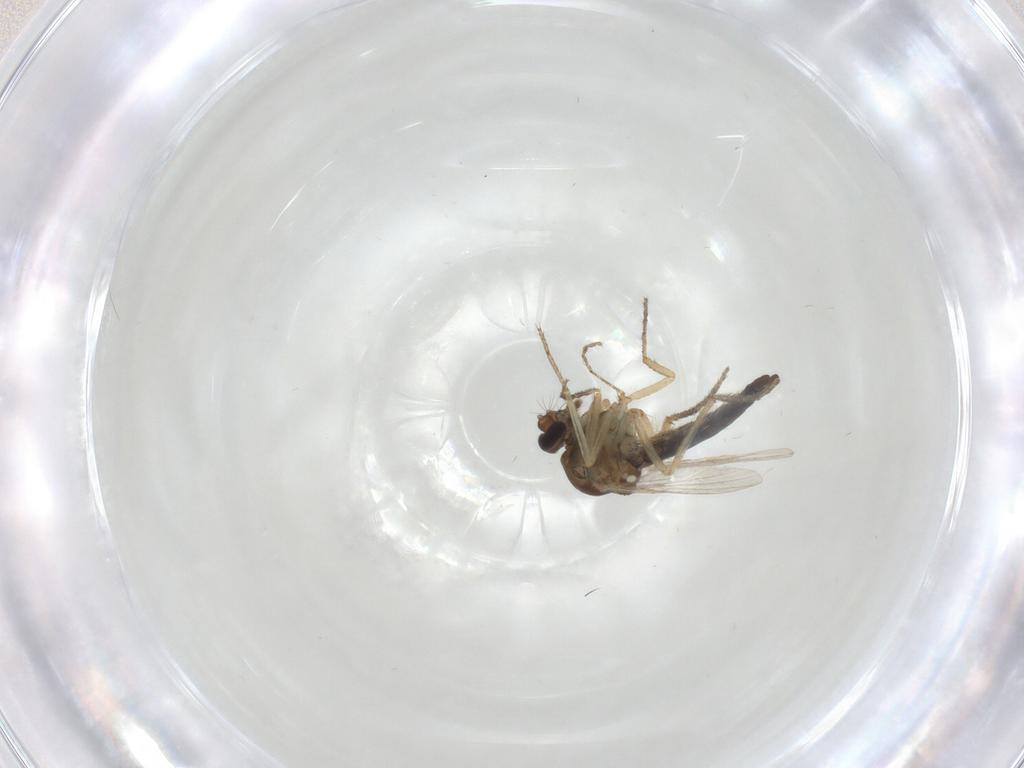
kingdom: Animalia
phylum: Arthropoda
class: Insecta
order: Diptera
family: Ceratopogonidae
